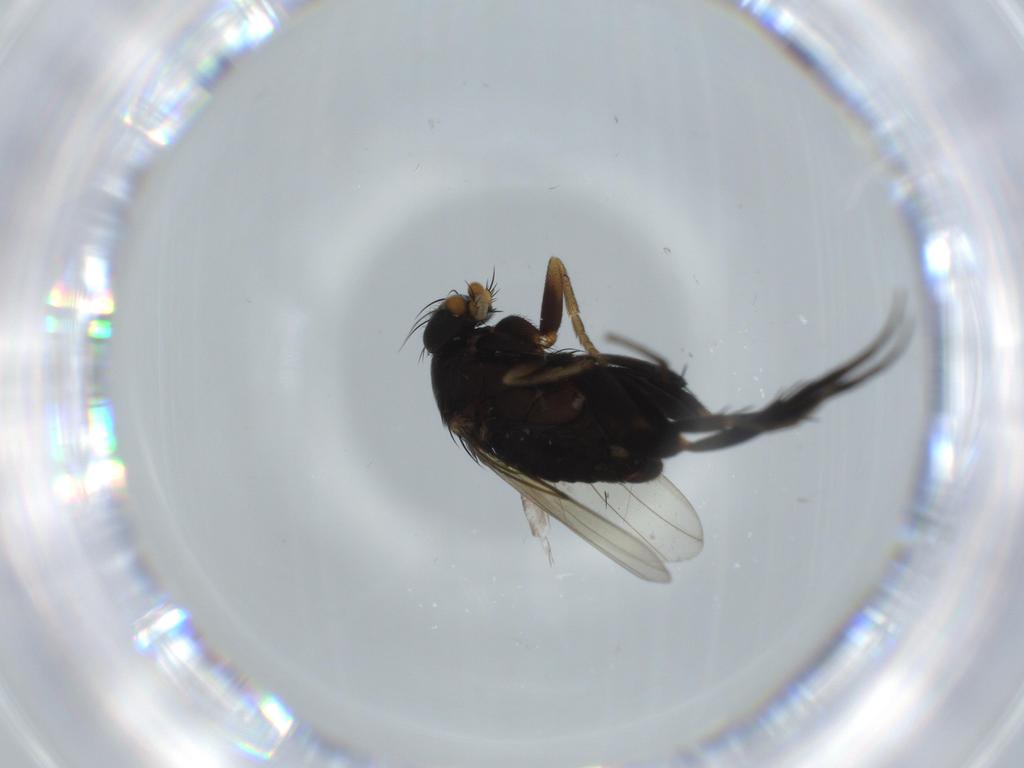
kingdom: Animalia
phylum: Arthropoda
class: Insecta
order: Diptera
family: Phoridae
